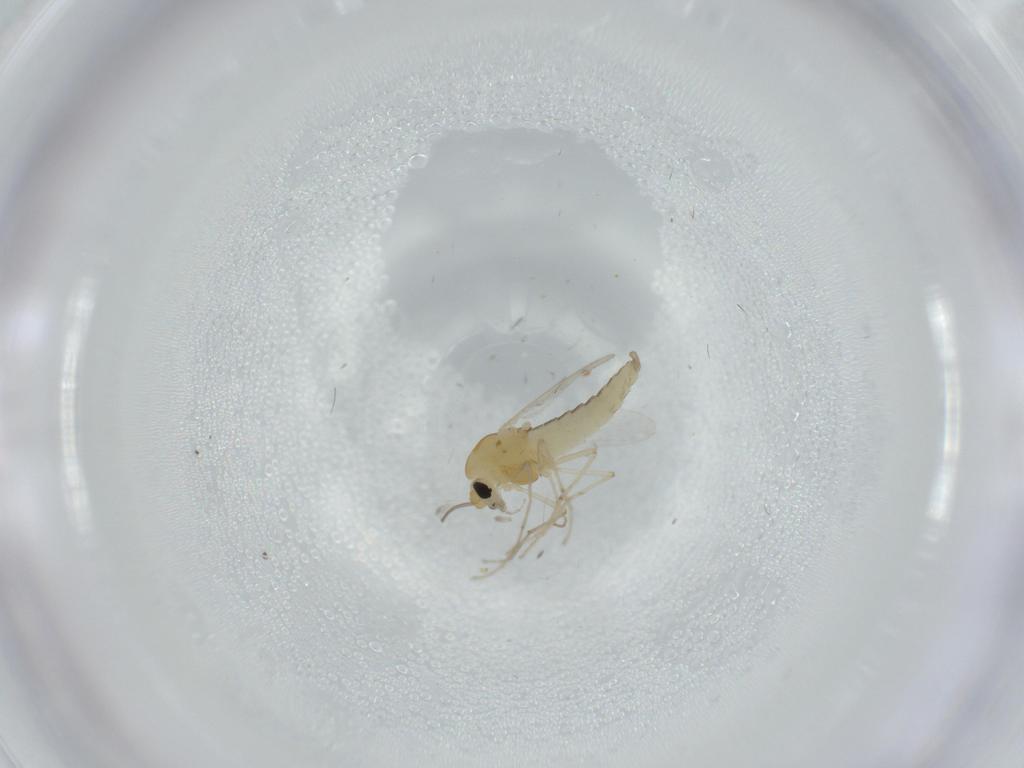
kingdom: Animalia
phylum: Arthropoda
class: Insecta
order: Diptera
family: Chironomidae
